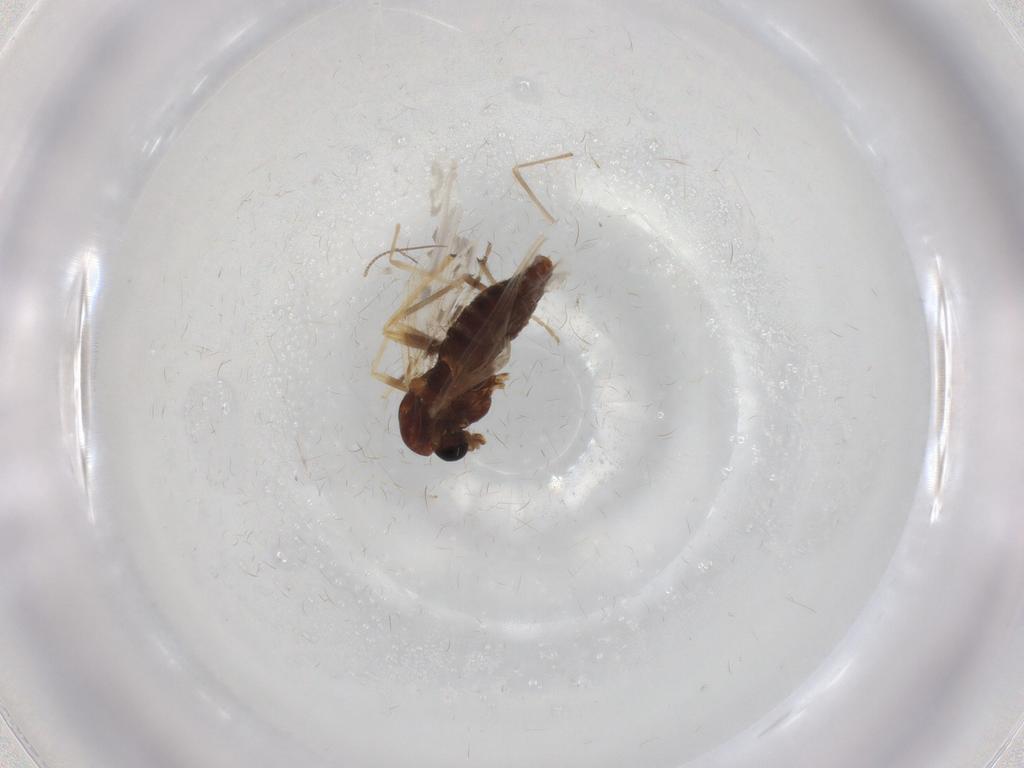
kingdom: Animalia
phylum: Arthropoda
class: Insecta
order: Diptera
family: Chironomidae
